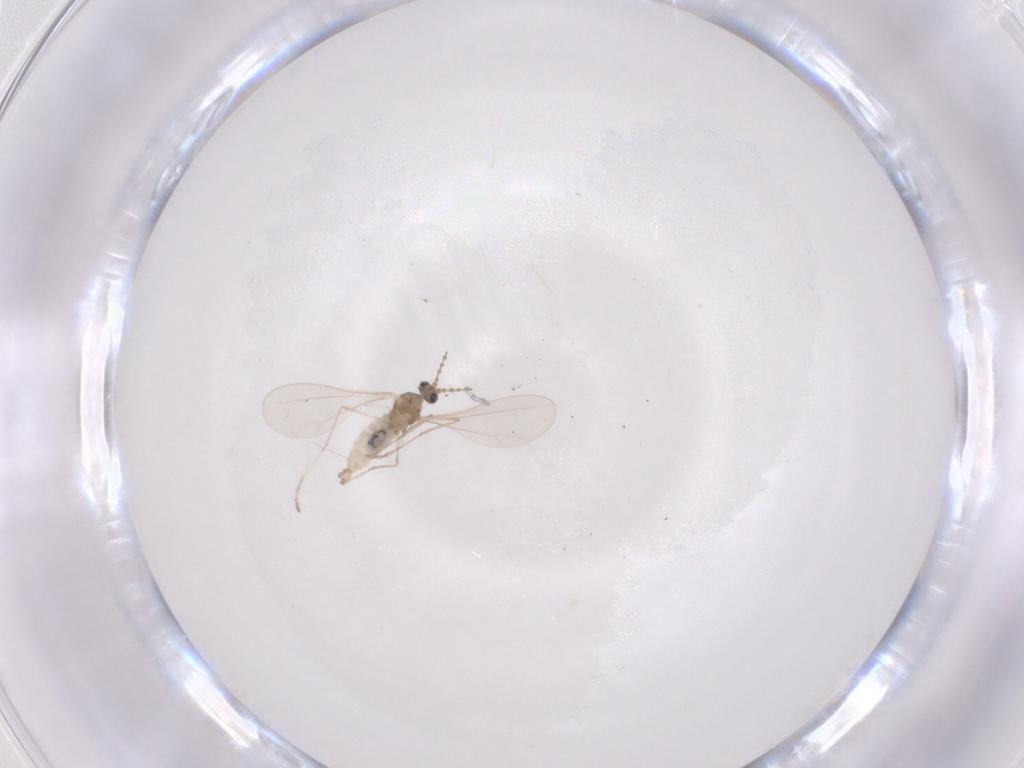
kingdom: Animalia
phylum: Arthropoda
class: Insecta
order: Diptera
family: Cecidomyiidae
